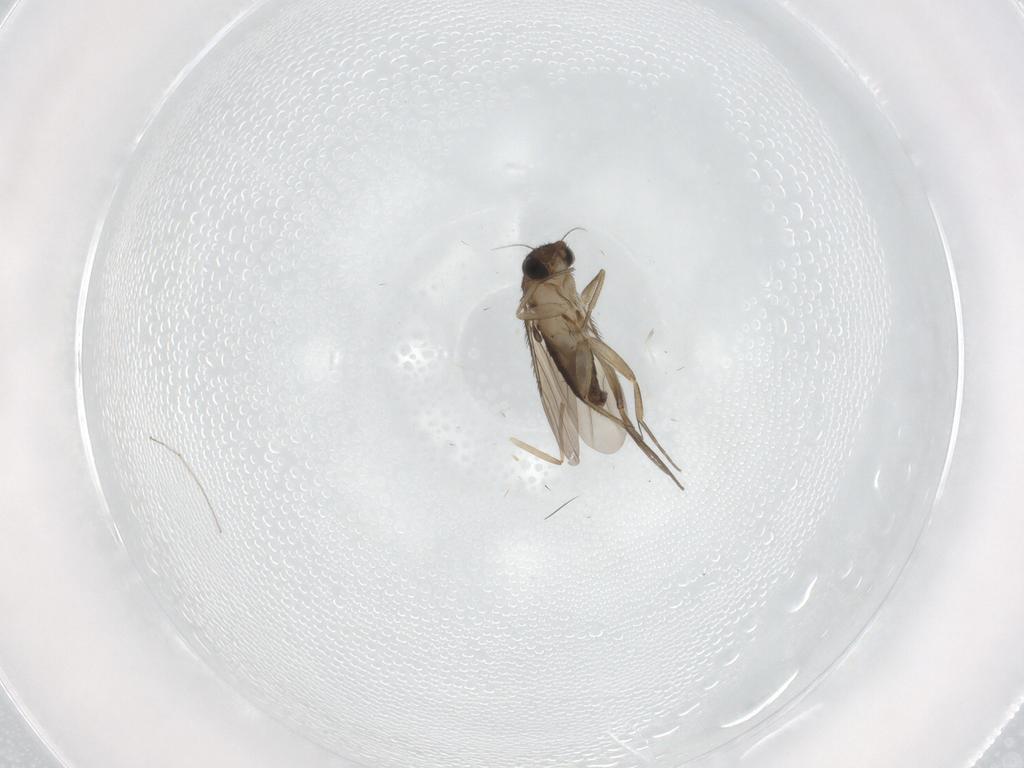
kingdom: Animalia
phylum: Arthropoda
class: Insecta
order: Diptera
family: Phoridae
